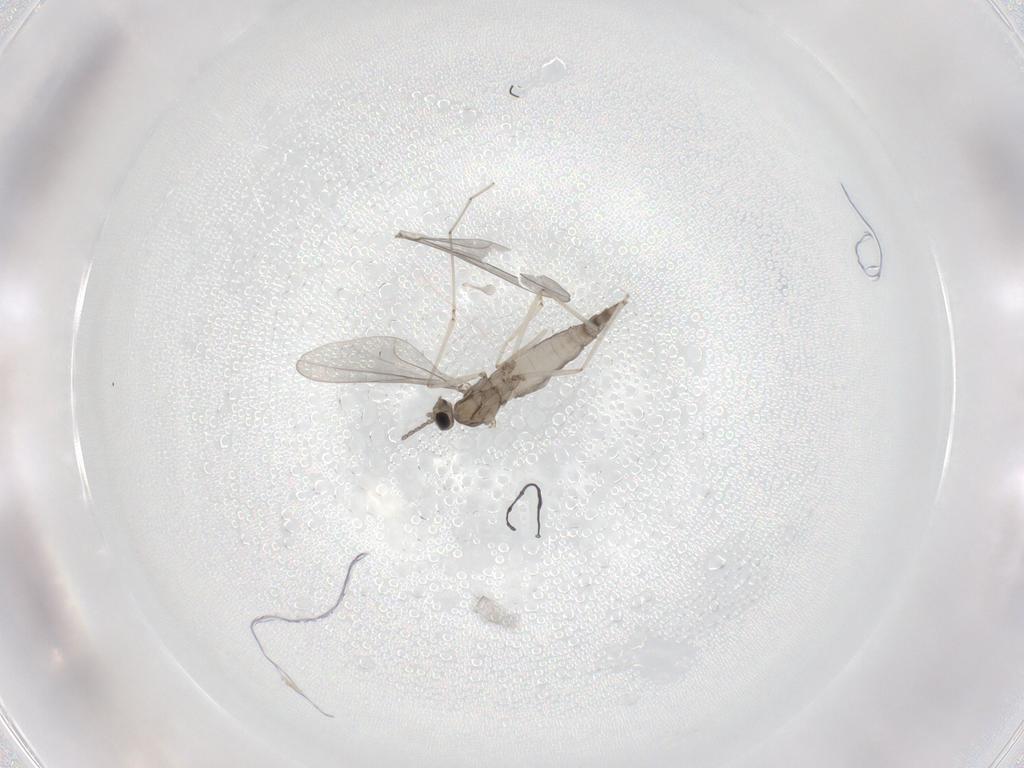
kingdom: Animalia
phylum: Arthropoda
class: Insecta
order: Diptera
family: Cecidomyiidae
